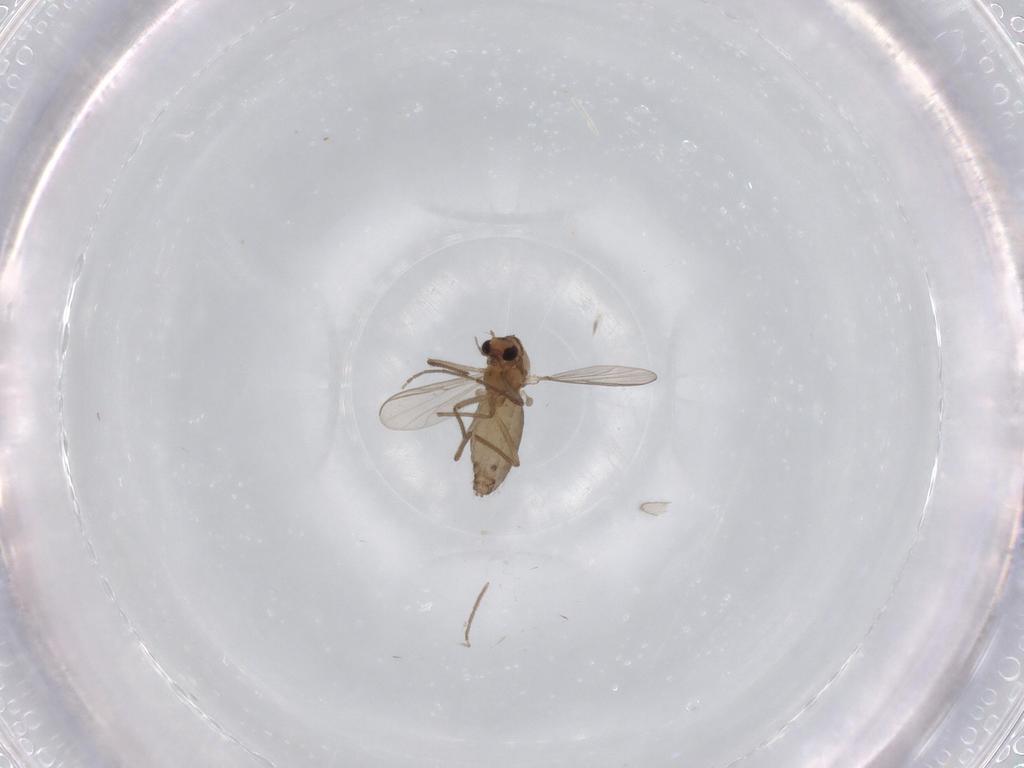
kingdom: Animalia
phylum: Arthropoda
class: Insecta
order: Diptera
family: Chironomidae
